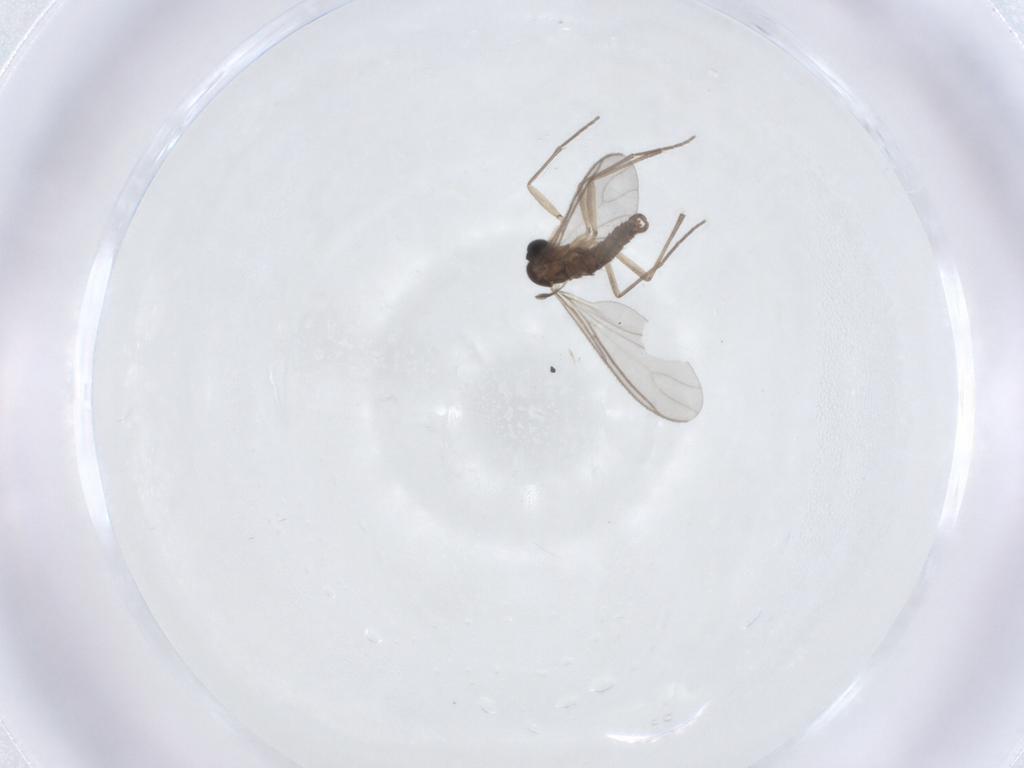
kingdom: Animalia
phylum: Arthropoda
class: Insecta
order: Diptera
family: Sciaridae
